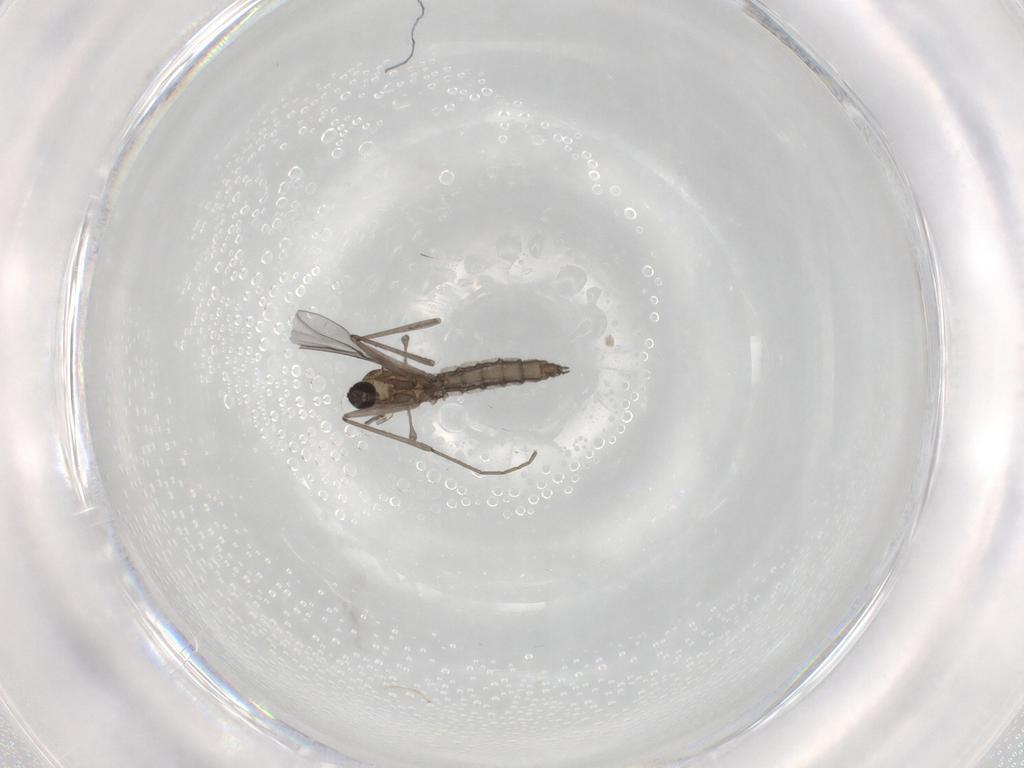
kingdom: Animalia
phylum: Arthropoda
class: Insecta
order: Diptera
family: Cecidomyiidae
